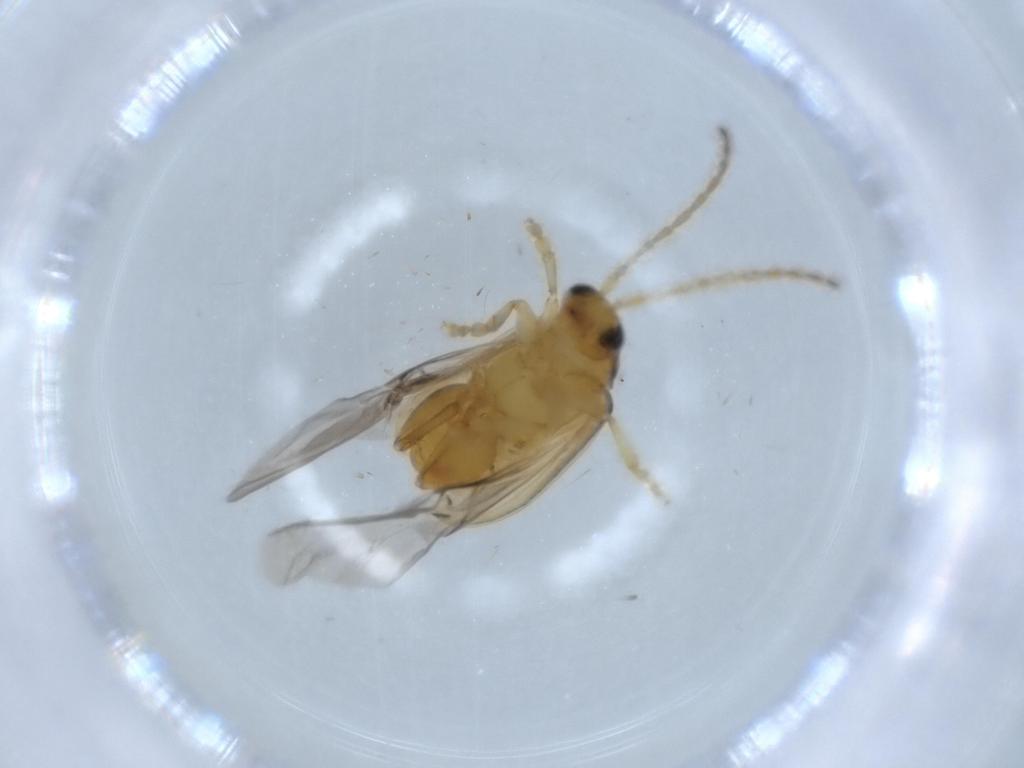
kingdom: Animalia
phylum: Arthropoda
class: Insecta
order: Coleoptera
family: Chrysomelidae
